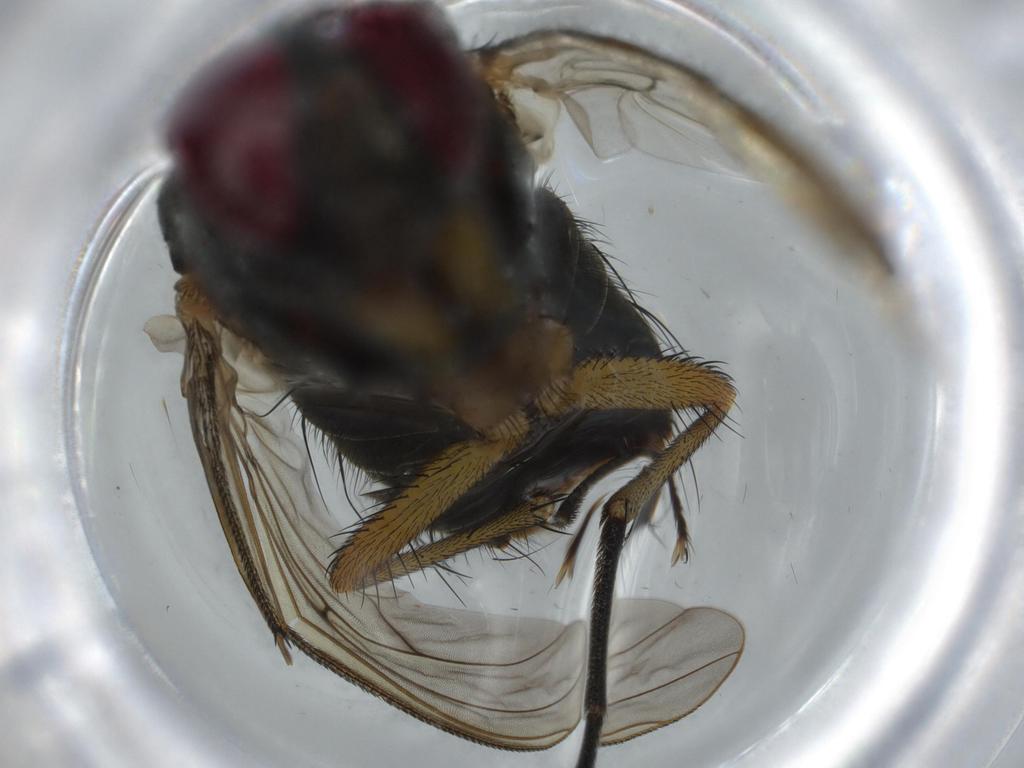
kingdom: Animalia
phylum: Arthropoda
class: Insecta
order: Diptera
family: Muscidae
